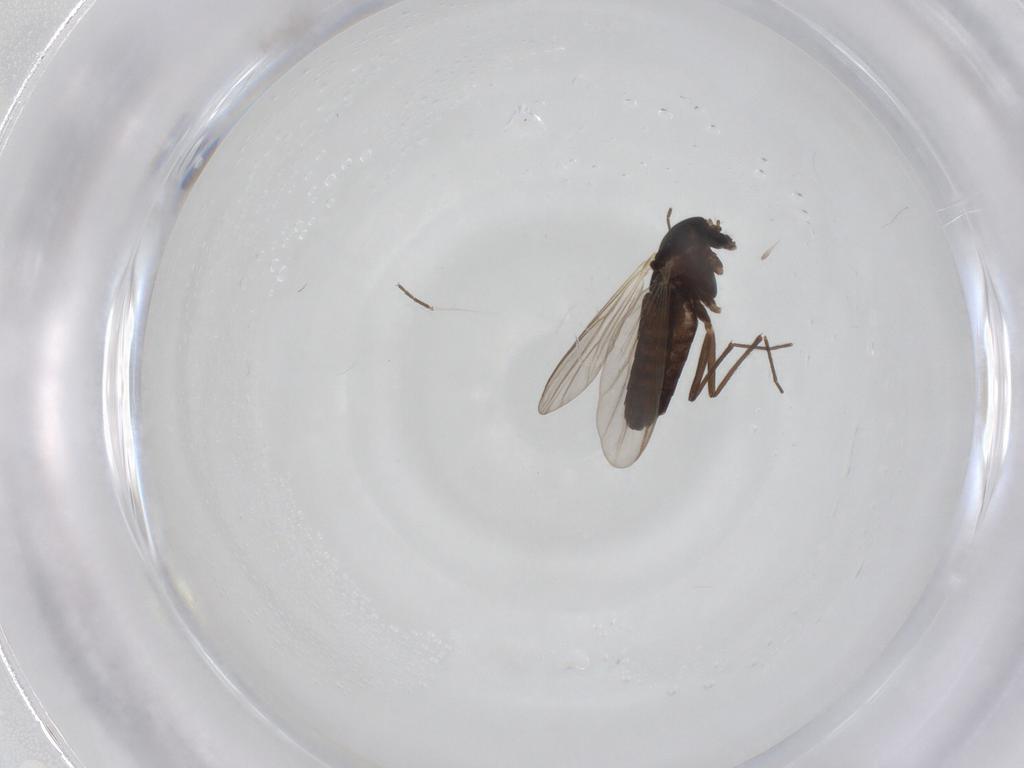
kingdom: Animalia
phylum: Arthropoda
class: Insecta
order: Diptera
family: Chironomidae
